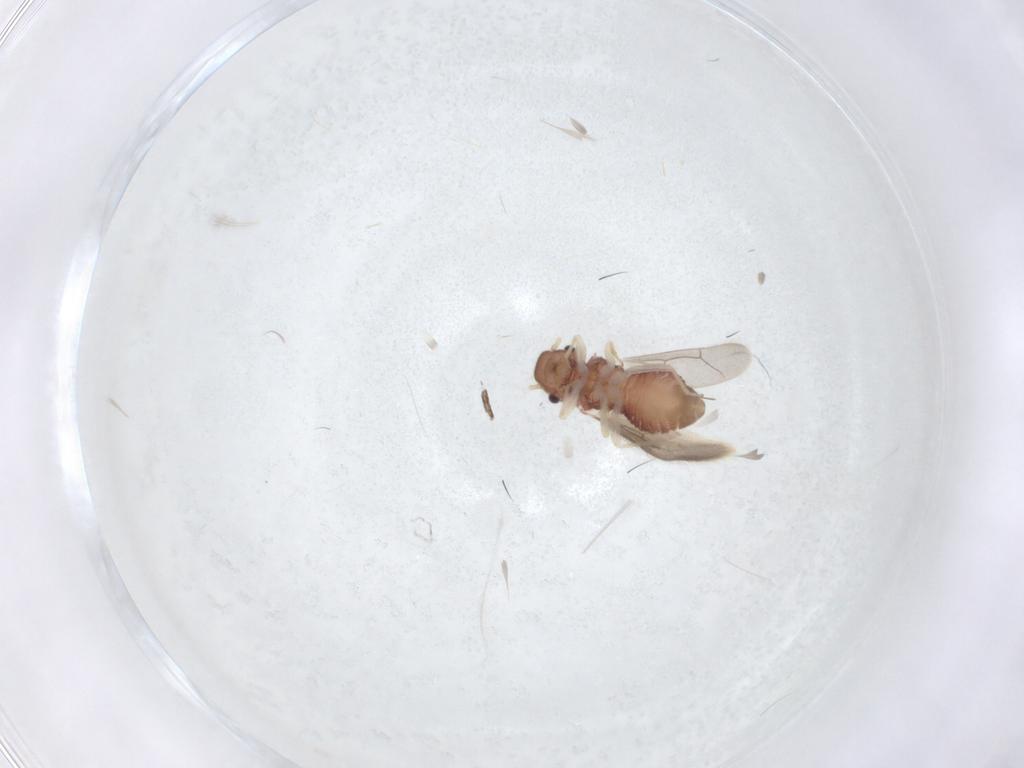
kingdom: Animalia
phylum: Arthropoda
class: Insecta
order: Psocodea
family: Archipsocidae
